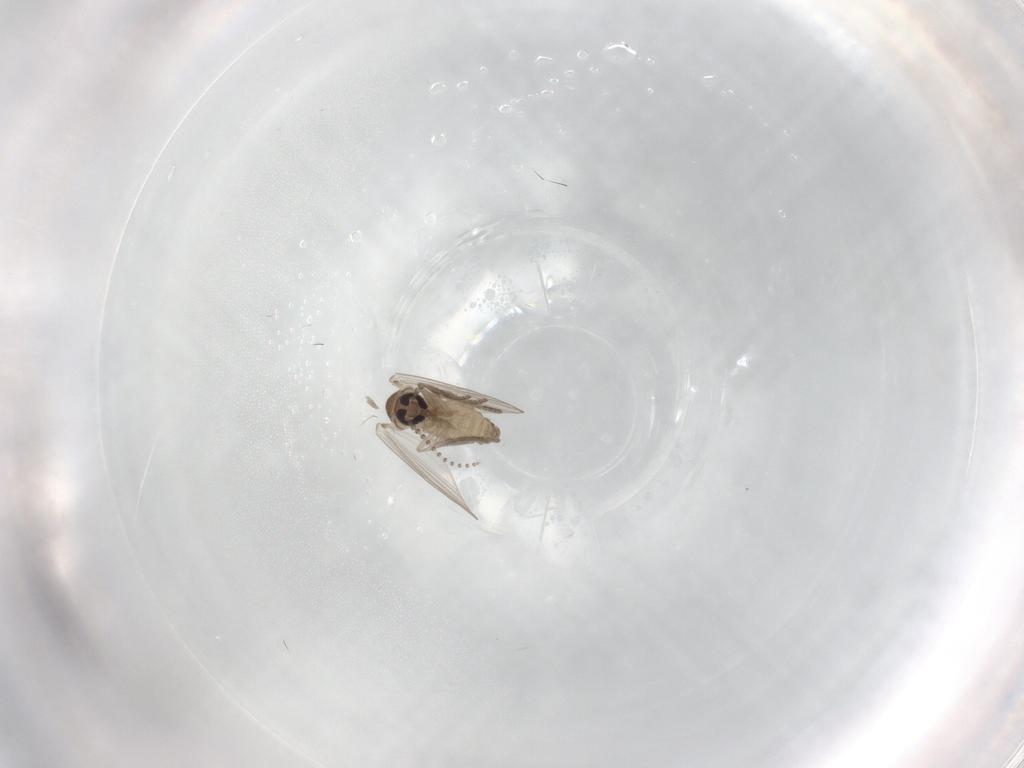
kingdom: Animalia
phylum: Arthropoda
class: Insecta
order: Diptera
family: Psychodidae
